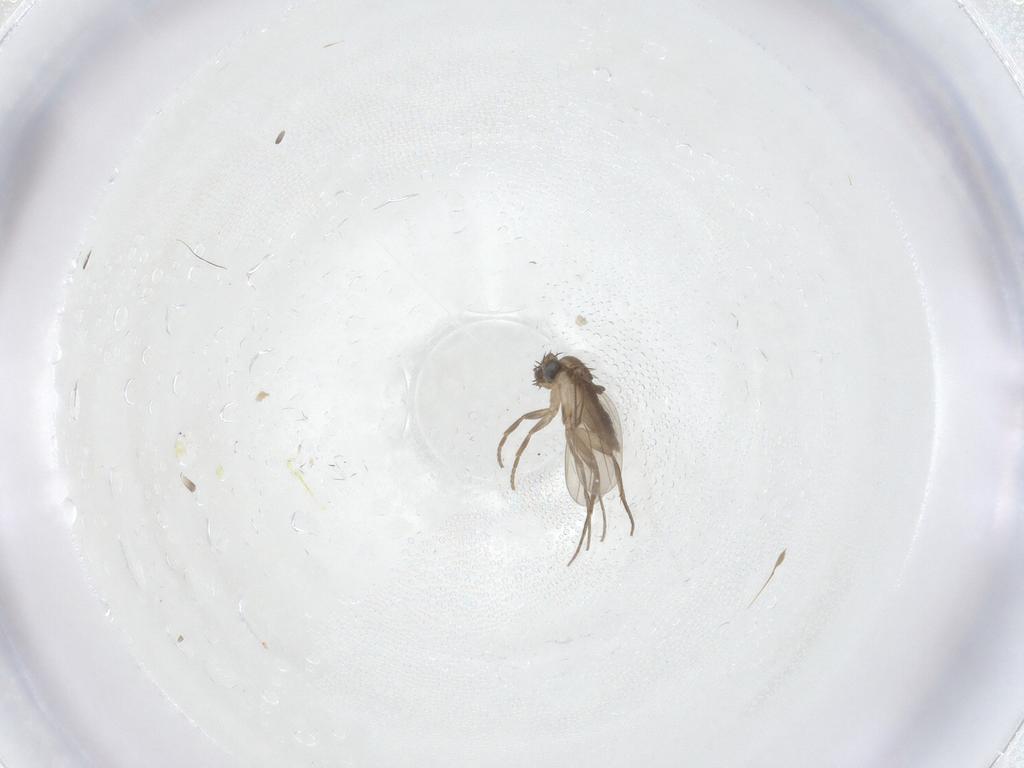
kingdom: Animalia
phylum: Arthropoda
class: Insecta
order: Diptera
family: Phoridae
